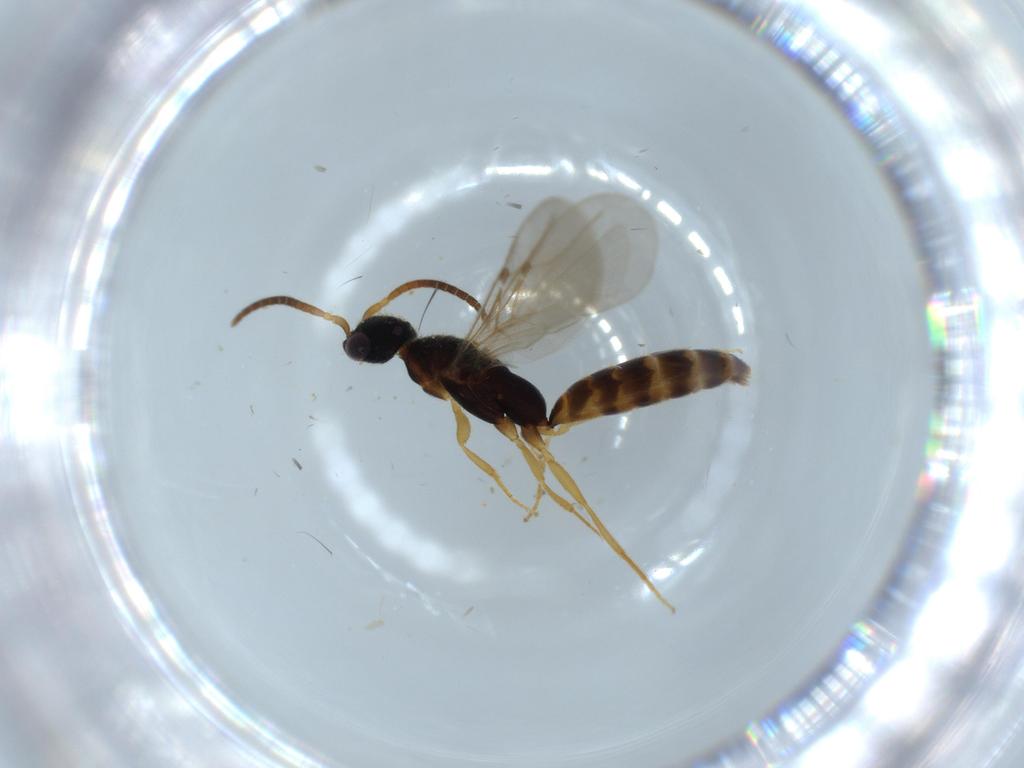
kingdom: Animalia
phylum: Arthropoda
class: Insecta
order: Hymenoptera
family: Bethylidae
